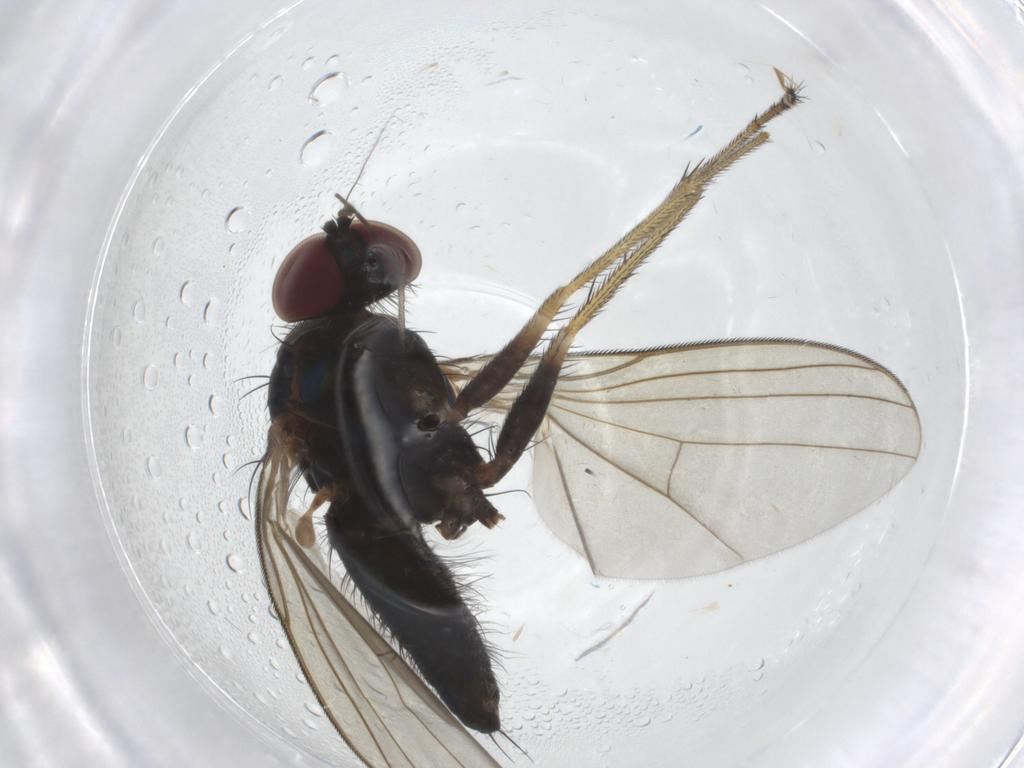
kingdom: Animalia
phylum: Arthropoda
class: Insecta
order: Diptera
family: Dolichopodidae
